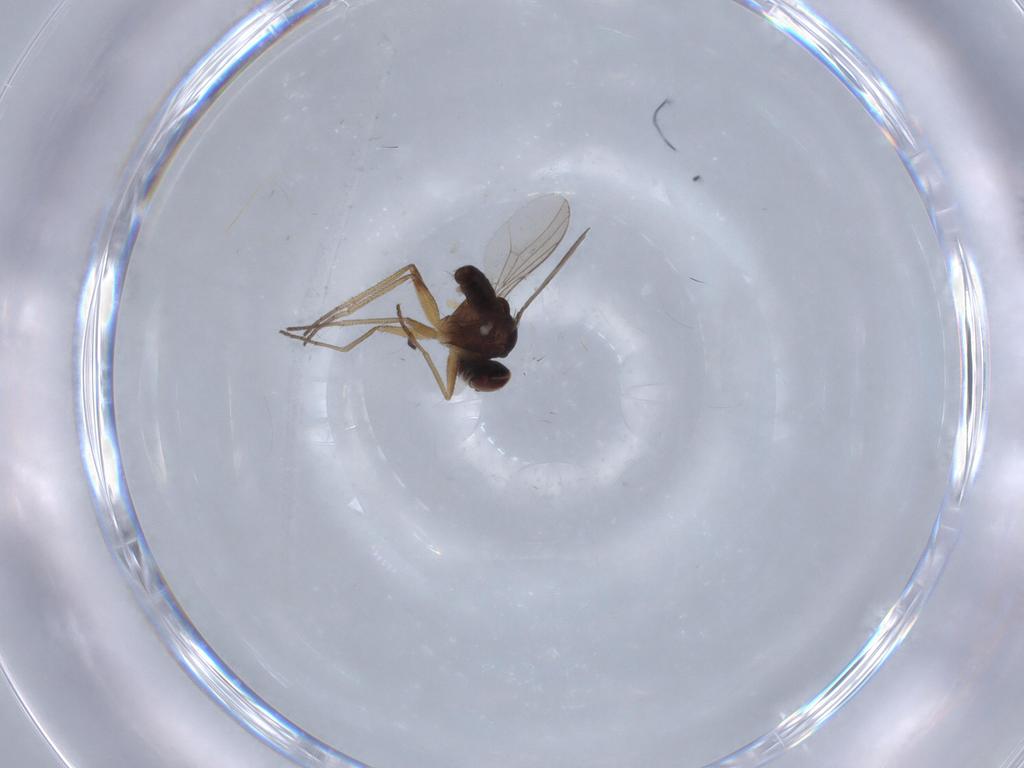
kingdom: Animalia
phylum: Arthropoda
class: Insecta
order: Diptera
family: Dolichopodidae
